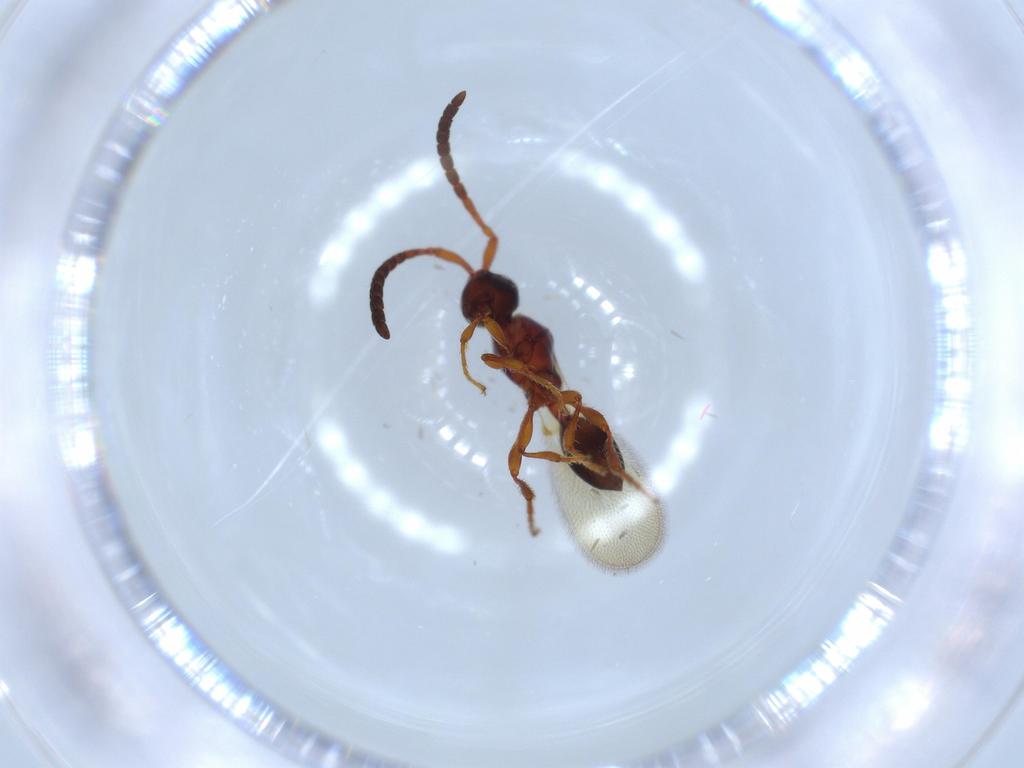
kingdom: Animalia
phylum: Arthropoda
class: Insecta
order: Hymenoptera
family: Diapriidae
